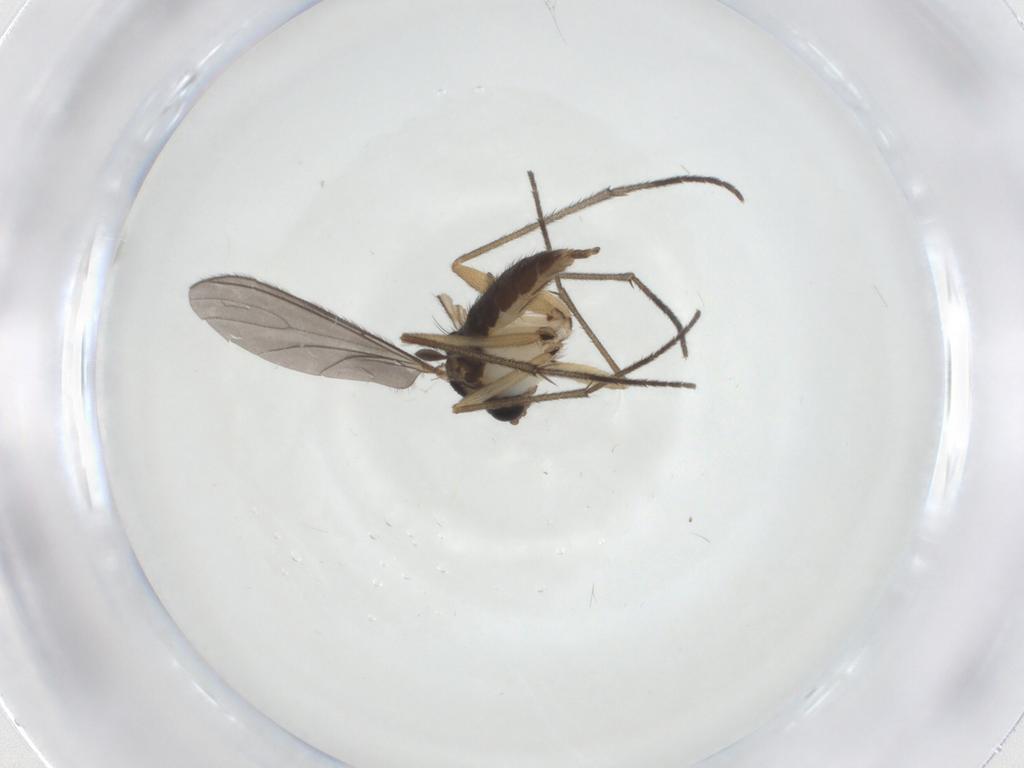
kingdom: Animalia
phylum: Arthropoda
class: Insecta
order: Diptera
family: Sciaridae
